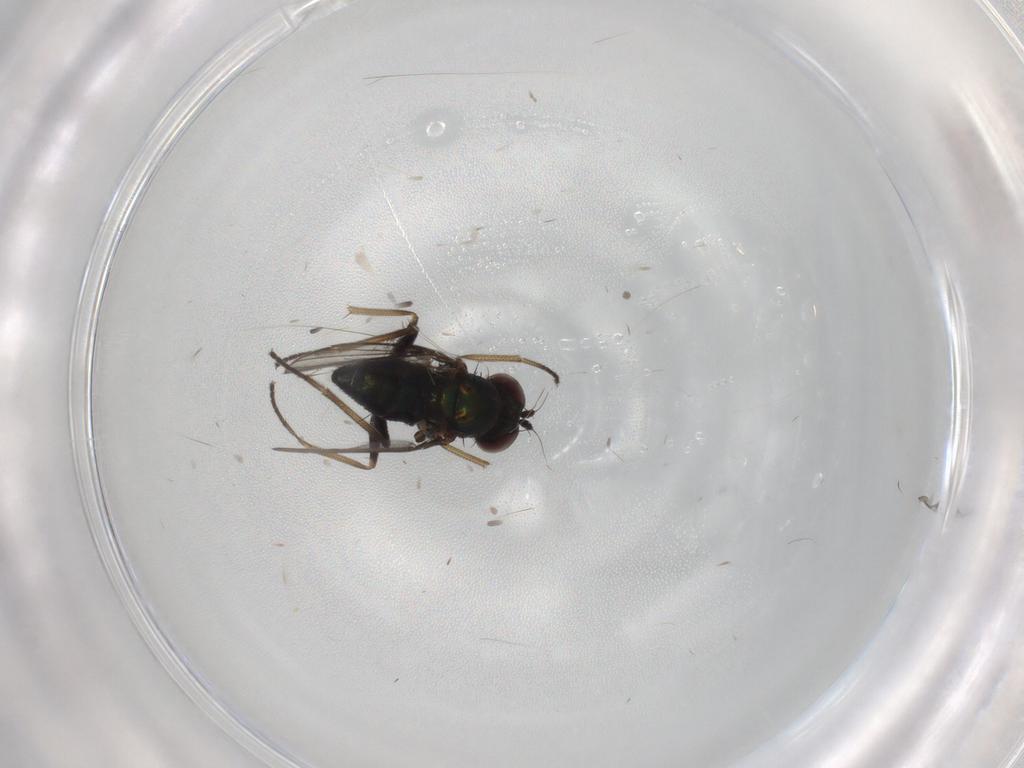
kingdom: Animalia
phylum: Arthropoda
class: Insecta
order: Diptera
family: Dolichopodidae
